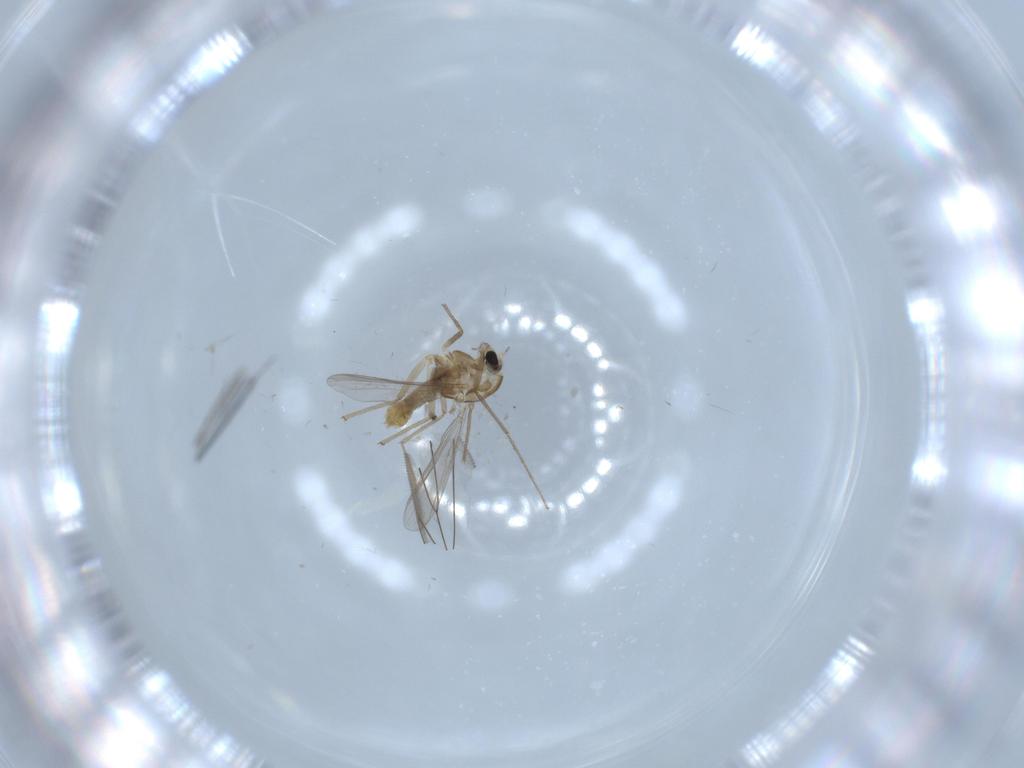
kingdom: Animalia
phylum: Arthropoda
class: Insecta
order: Diptera
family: Chironomidae
